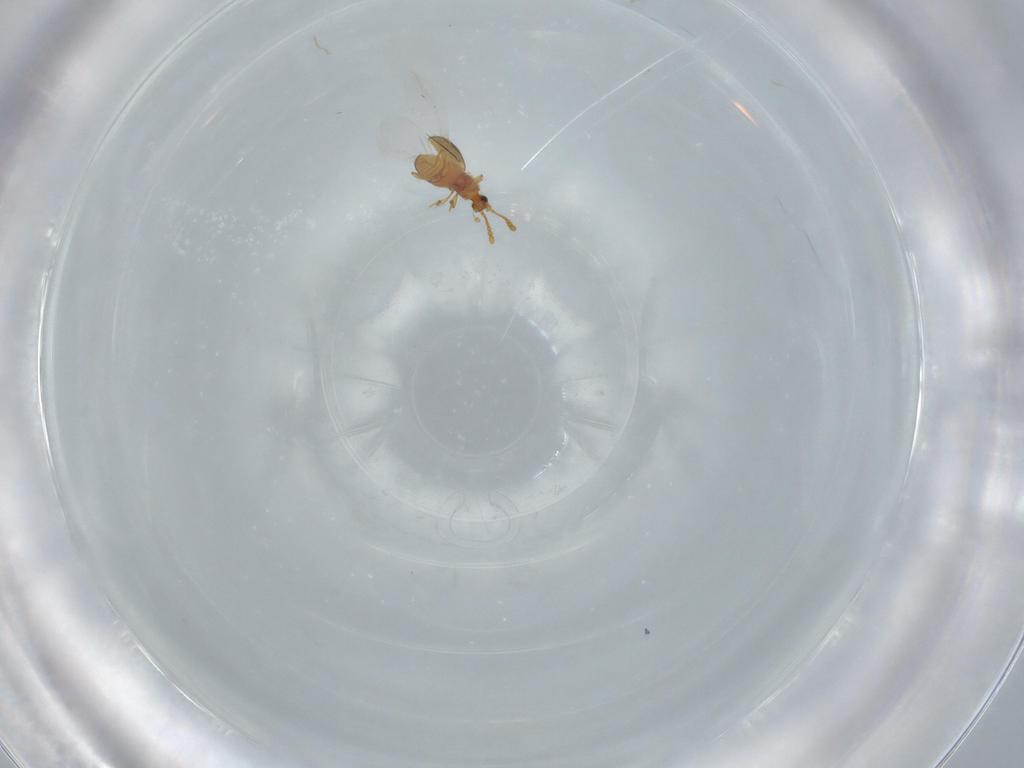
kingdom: Animalia
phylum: Arthropoda
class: Insecta
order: Coleoptera
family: Staphylinidae
